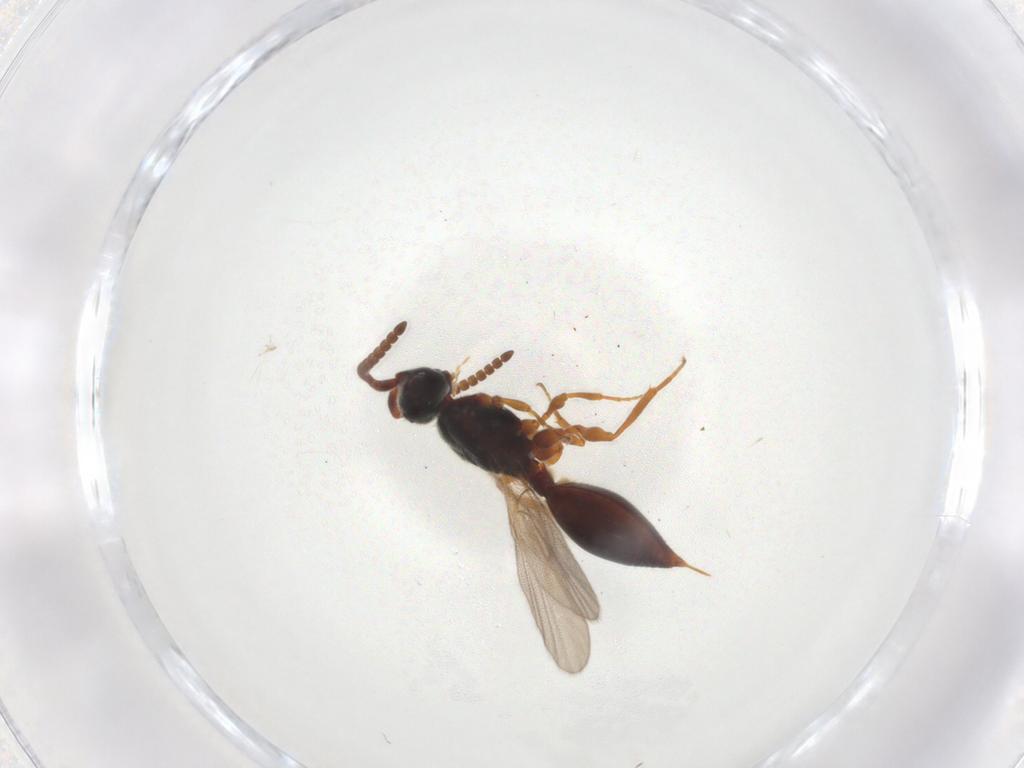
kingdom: Animalia
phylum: Arthropoda
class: Insecta
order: Hymenoptera
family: Diapriidae
